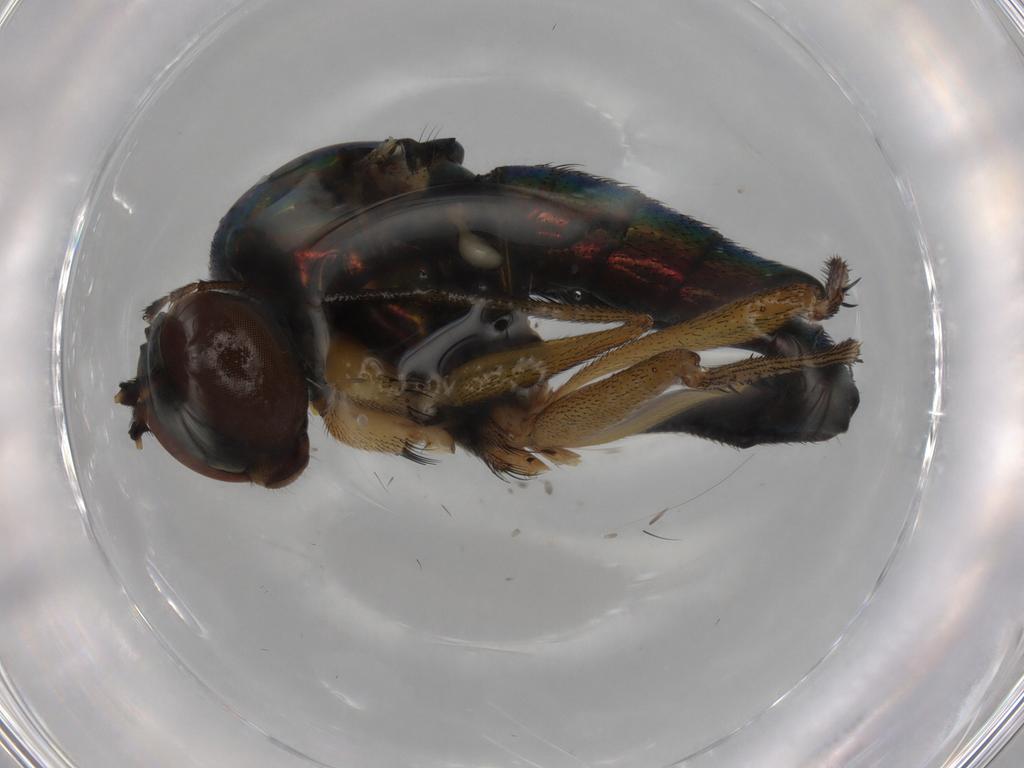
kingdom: Animalia
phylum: Arthropoda
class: Insecta
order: Diptera
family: Dolichopodidae
